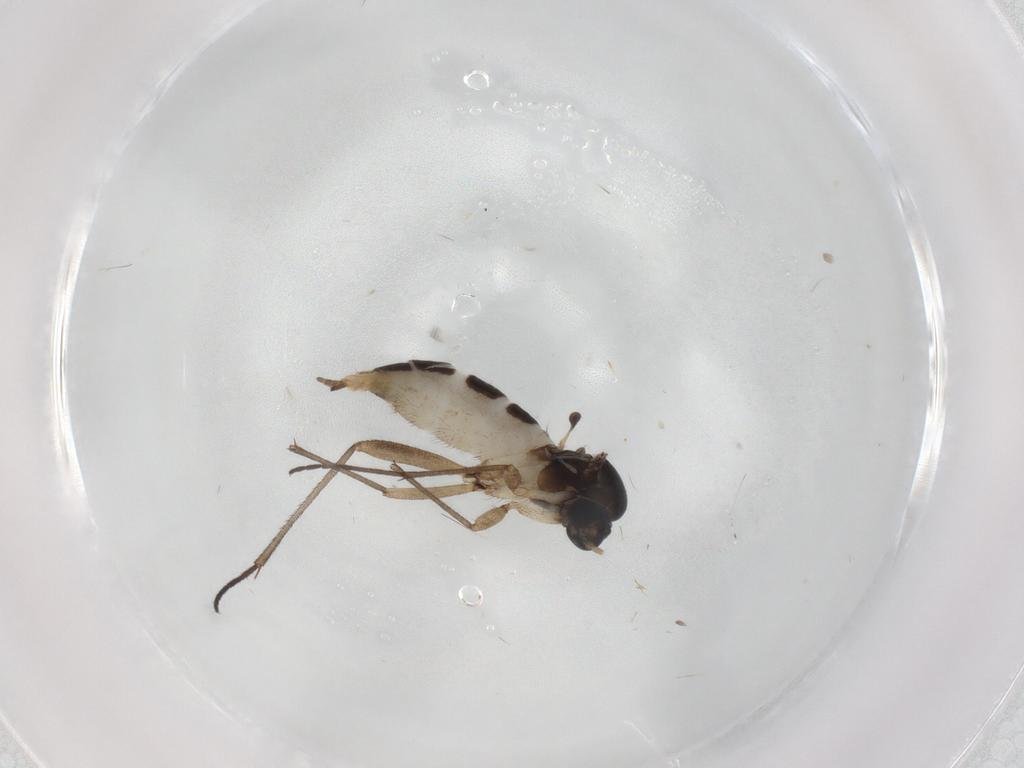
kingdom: Animalia
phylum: Arthropoda
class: Insecta
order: Diptera
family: Sciaridae
